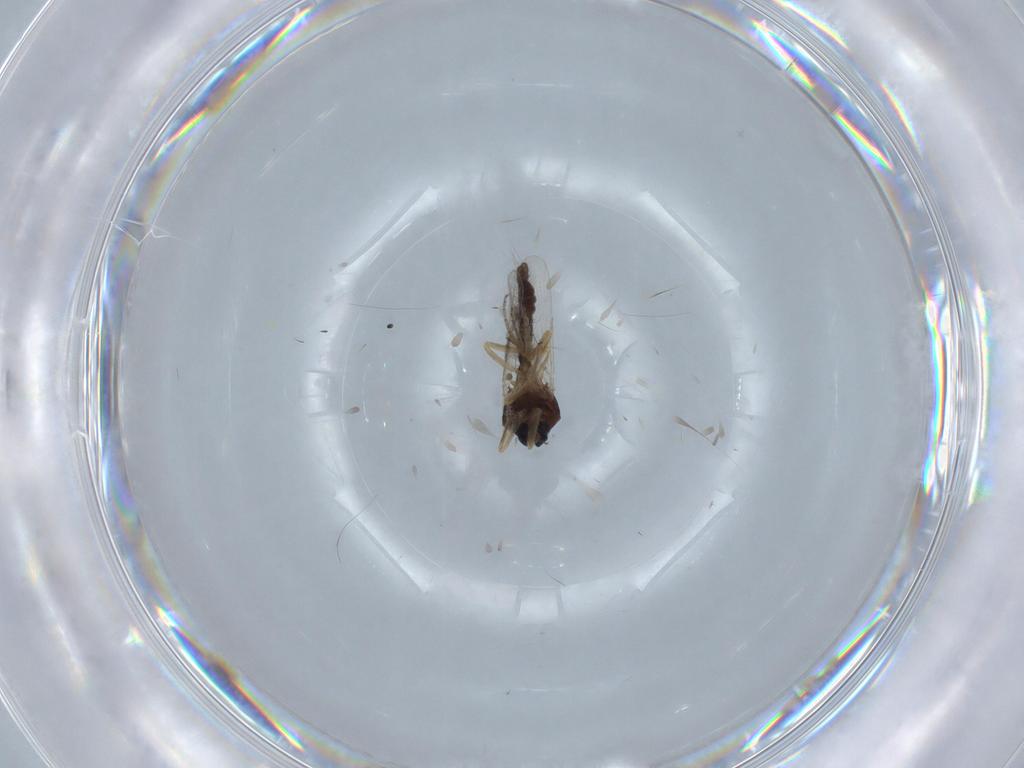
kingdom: Animalia
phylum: Arthropoda
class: Insecta
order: Diptera
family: Ceratopogonidae
